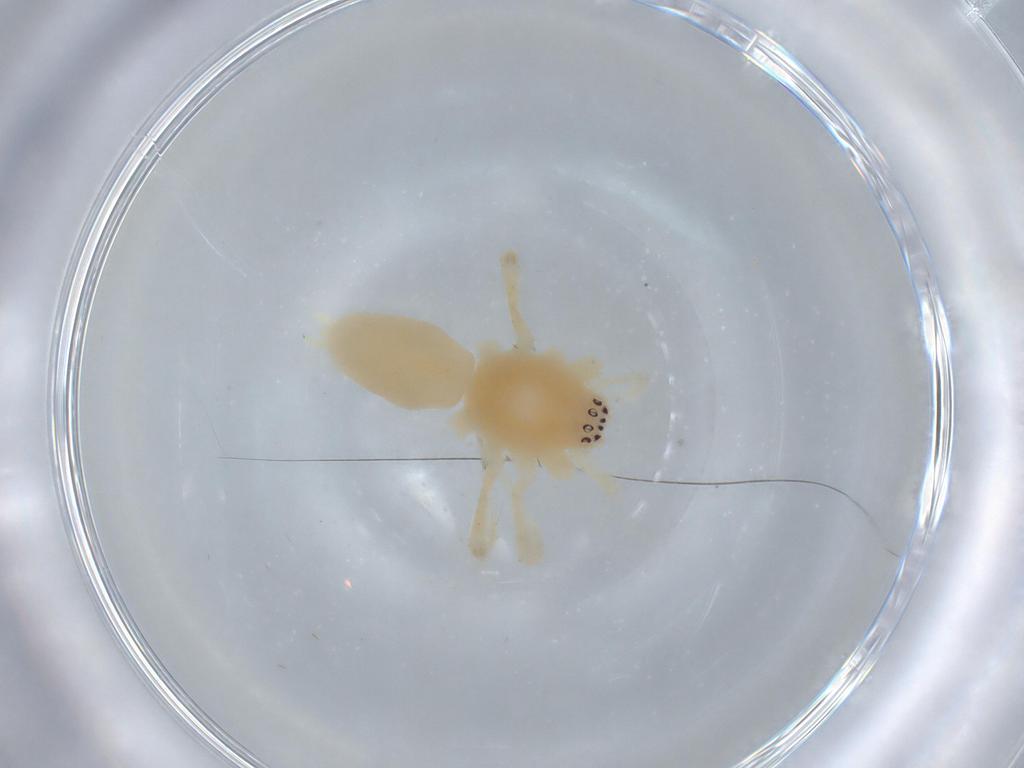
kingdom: Animalia
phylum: Arthropoda
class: Arachnida
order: Araneae
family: Anyphaenidae
